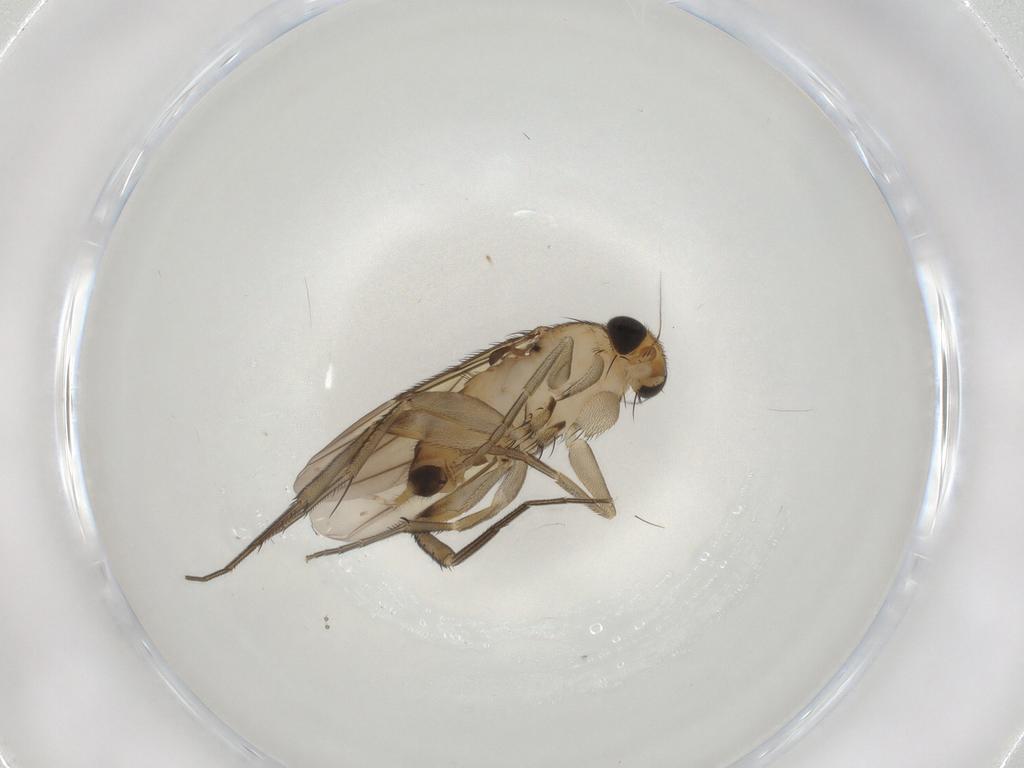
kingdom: Animalia
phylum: Arthropoda
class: Insecta
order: Diptera
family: Phoridae
